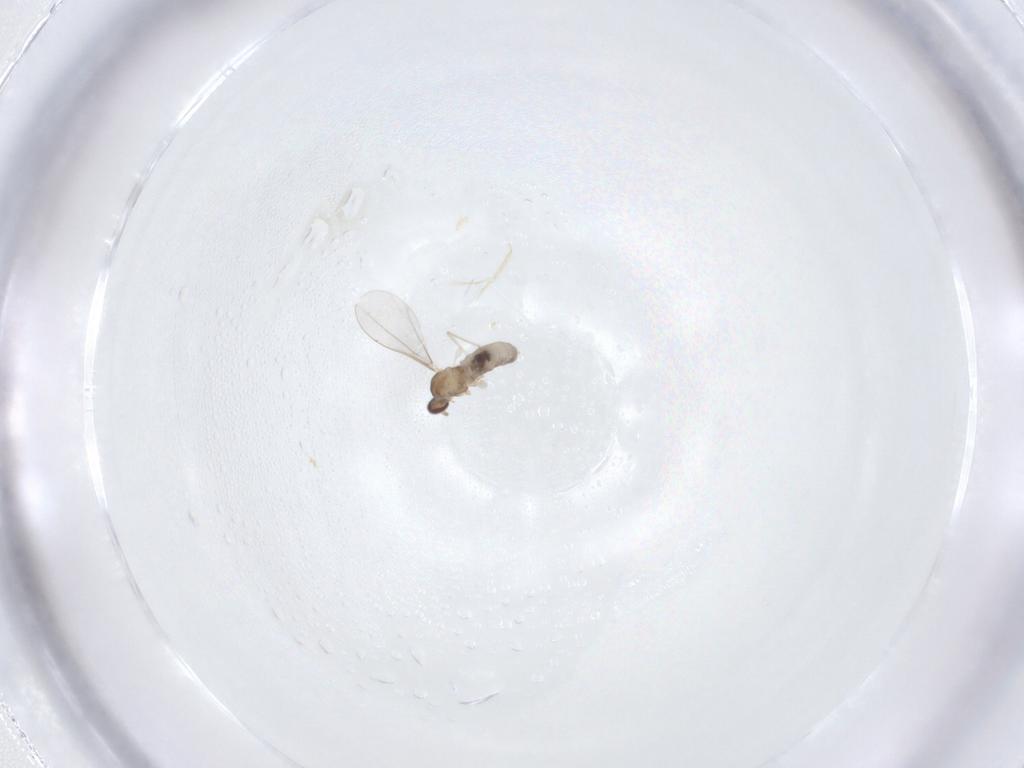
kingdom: Animalia
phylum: Arthropoda
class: Insecta
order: Diptera
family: Cecidomyiidae
